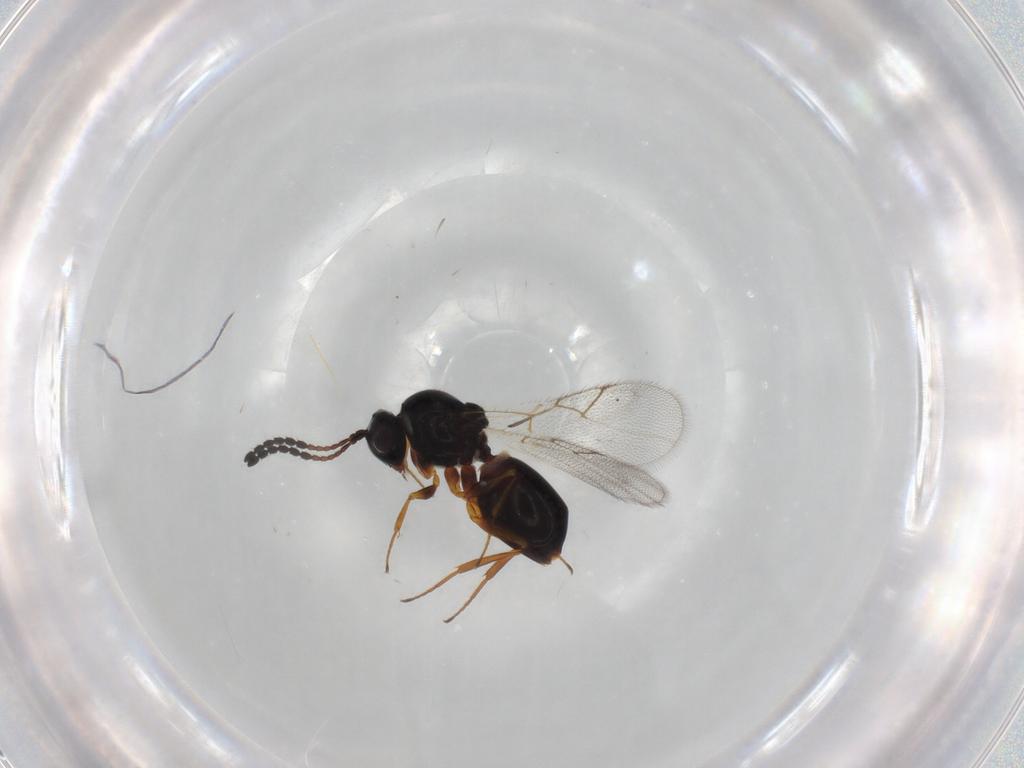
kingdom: Animalia
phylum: Arthropoda
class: Insecta
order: Hymenoptera
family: Figitidae
